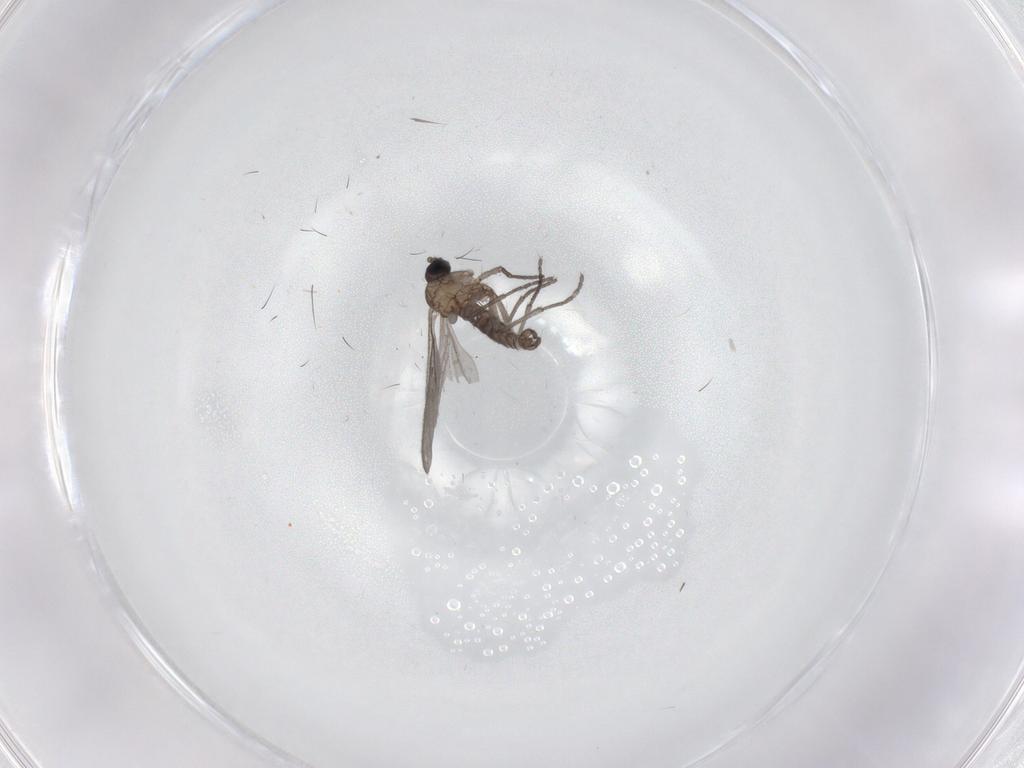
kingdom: Animalia
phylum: Arthropoda
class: Insecta
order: Diptera
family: Sciaridae
